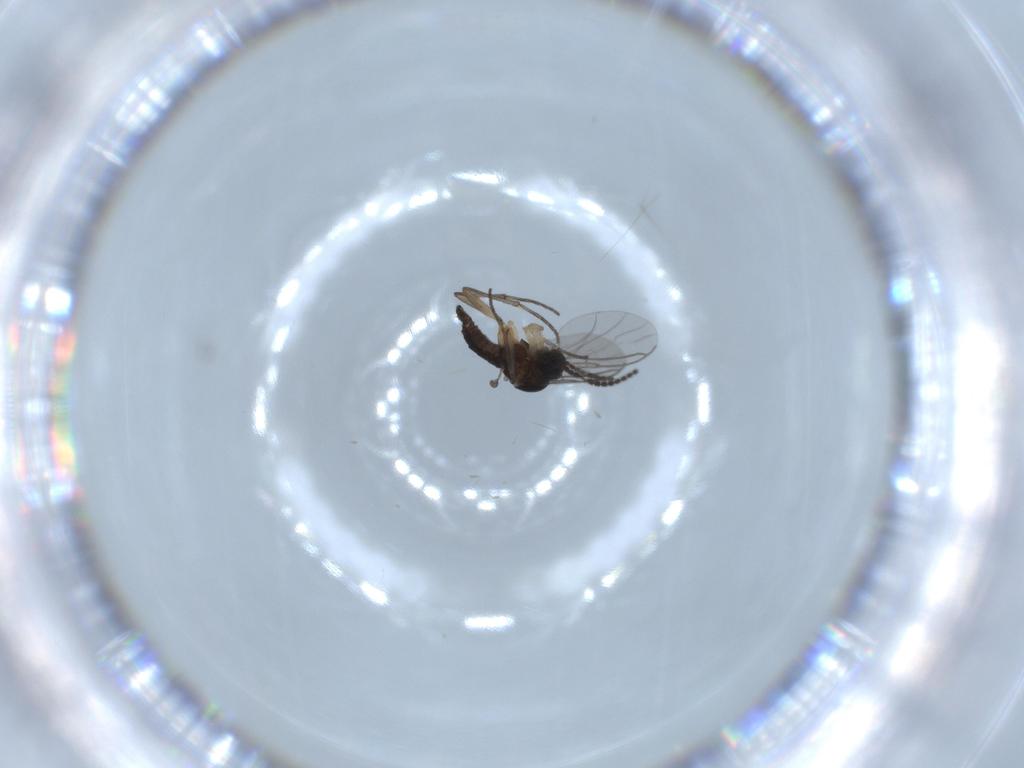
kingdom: Animalia
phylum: Arthropoda
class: Insecta
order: Diptera
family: Sciaridae
